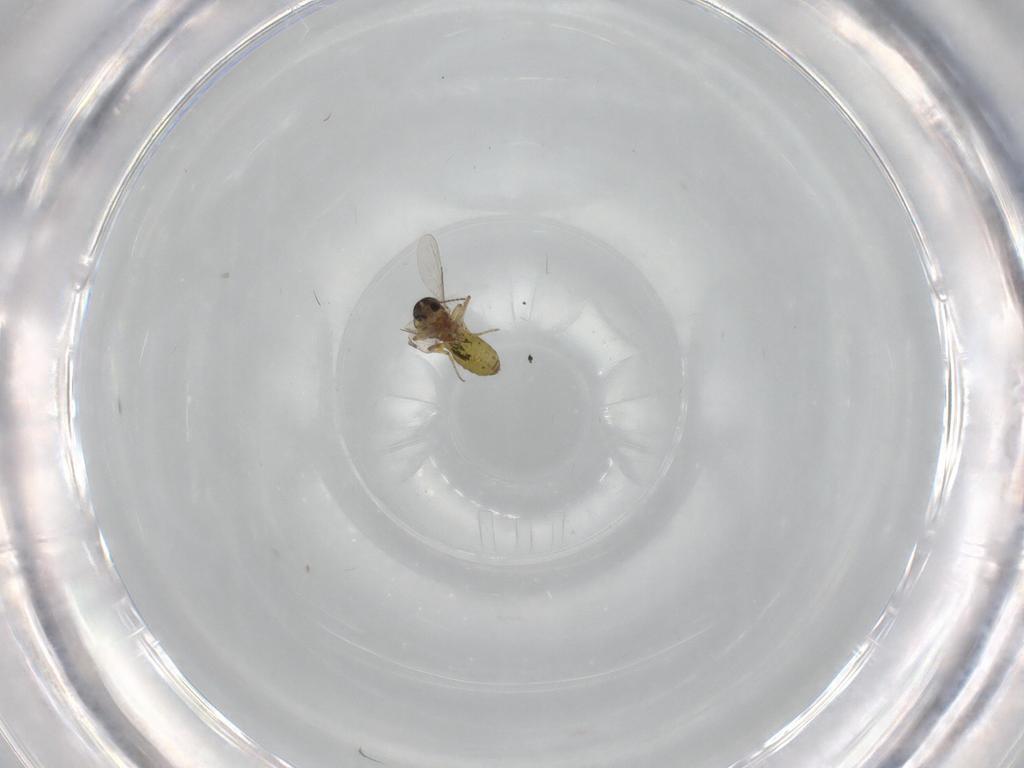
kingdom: Animalia
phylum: Arthropoda
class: Insecta
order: Diptera
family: Ceratopogonidae
